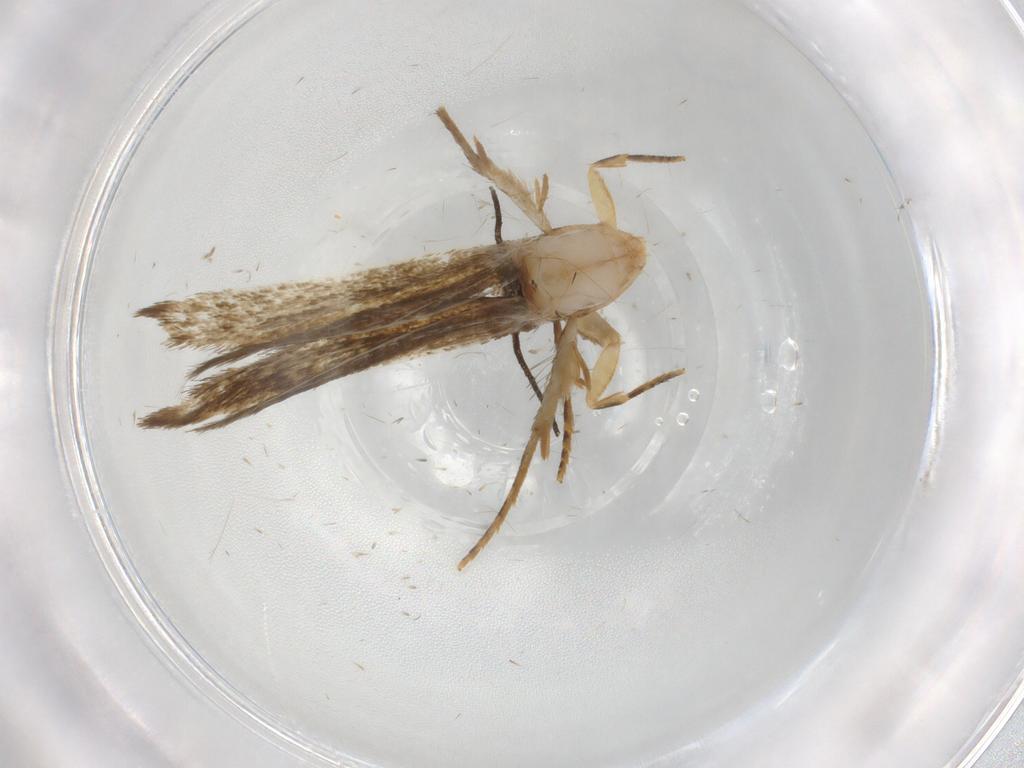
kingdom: Animalia
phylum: Arthropoda
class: Insecta
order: Lepidoptera
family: Tineidae
